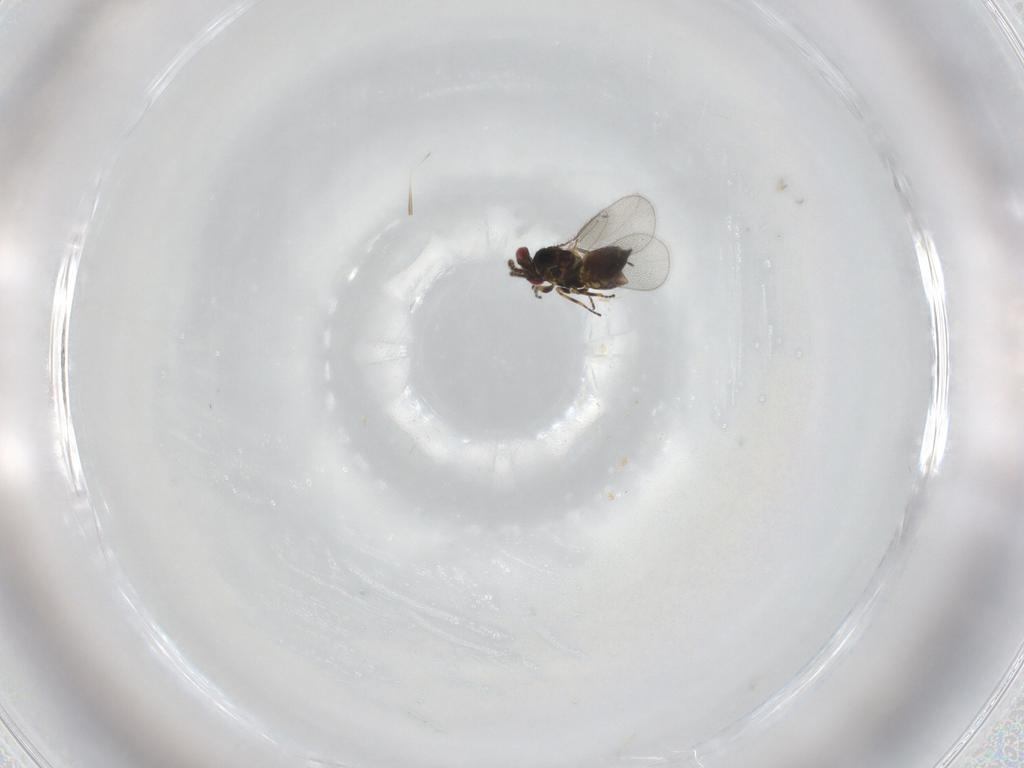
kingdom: Animalia
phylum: Arthropoda
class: Insecta
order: Hymenoptera
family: Eulophidae
